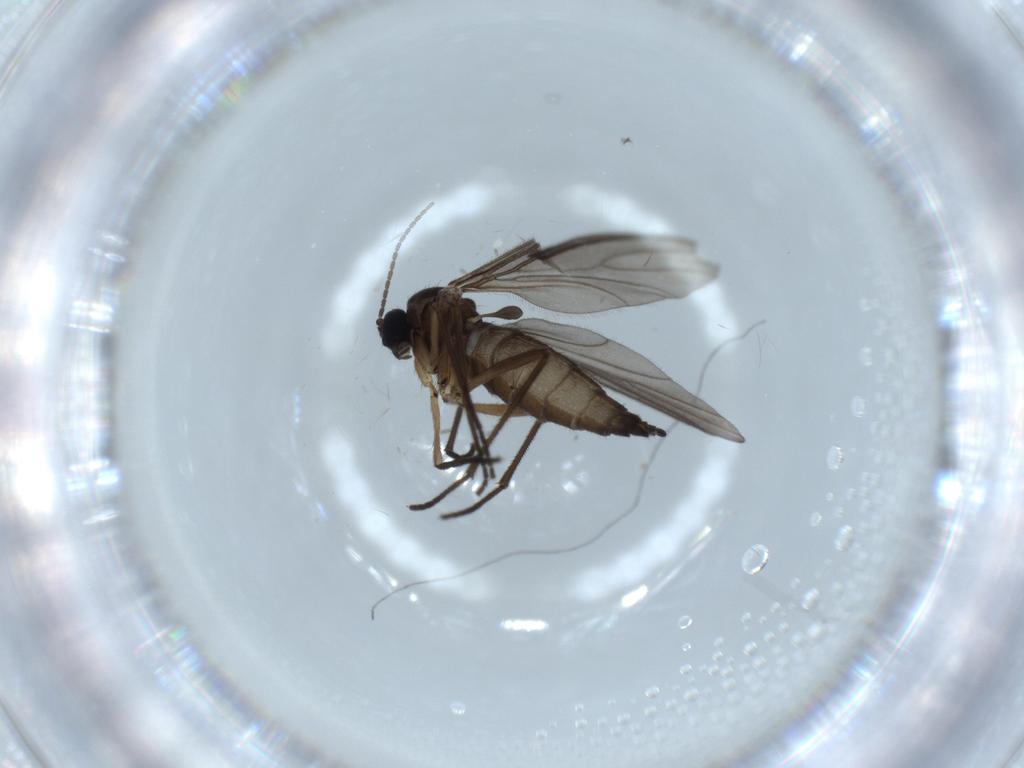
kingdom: Animalia
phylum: Arthropoda
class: Insecta
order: Diptera
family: Sciaridae
